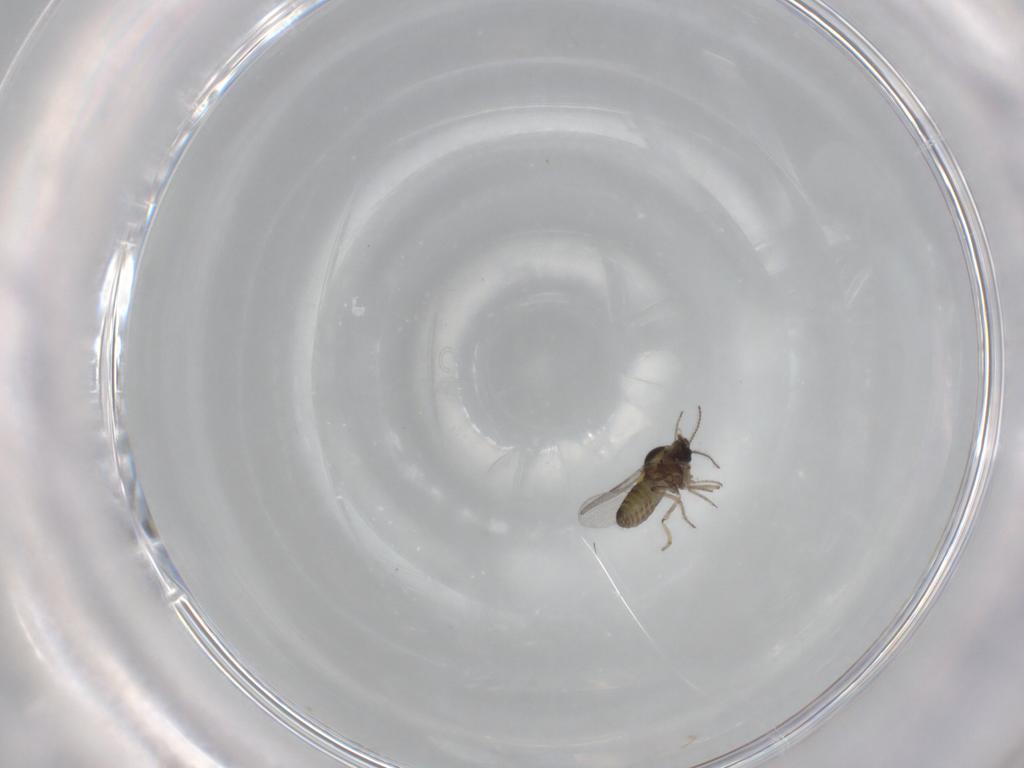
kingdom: Animalia
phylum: Arthropoda
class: Insecta
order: Diptera
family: Ceratopogonidae
